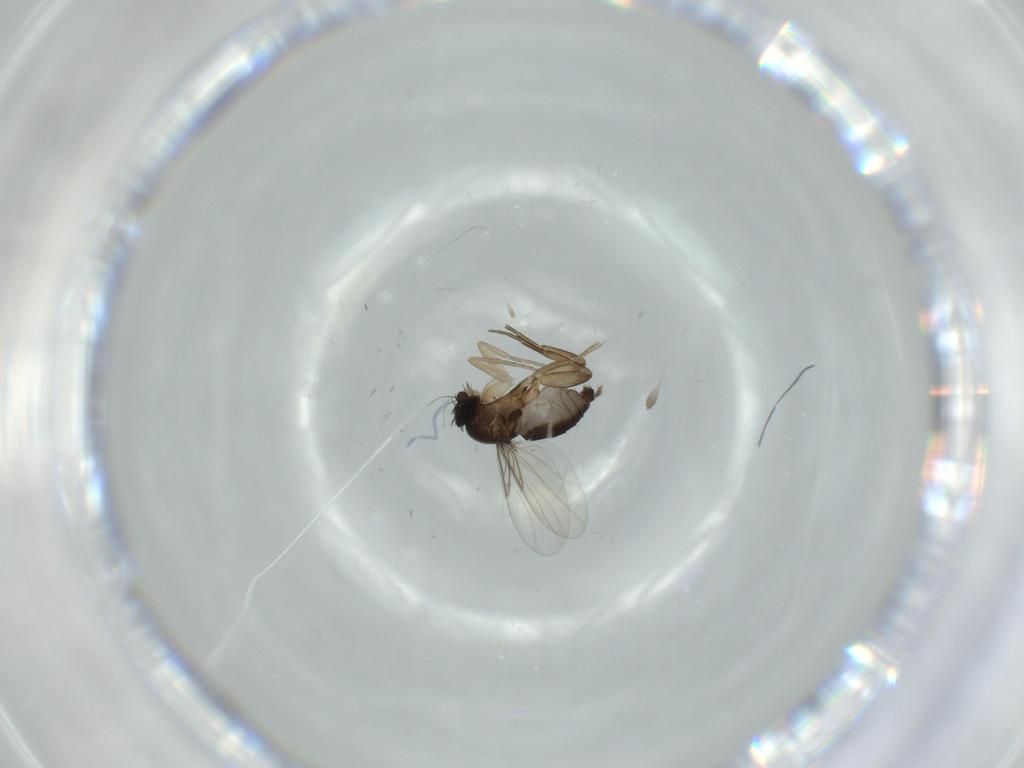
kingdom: Animalia
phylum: Arthropoda
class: Insecta
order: Diptera
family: Phoridae
